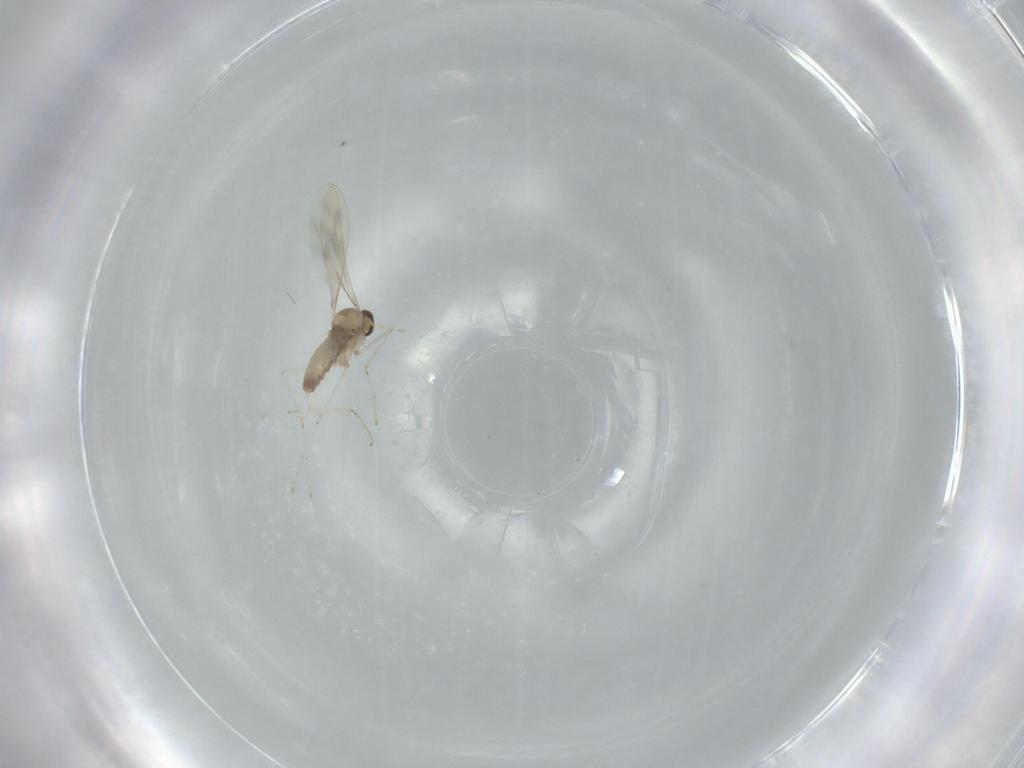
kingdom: Animalia
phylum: Arthropoda
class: Insecta
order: Diptera
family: Cecidomyiidae
